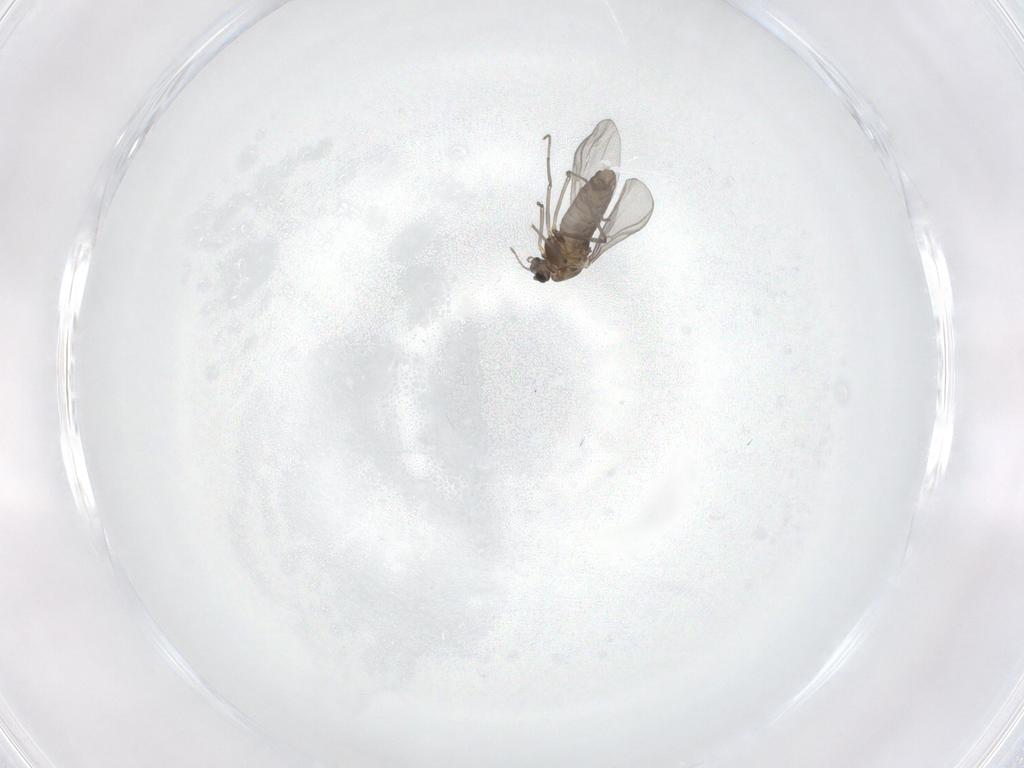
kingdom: Animalia
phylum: Arthropoda
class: Insecta
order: Diptera
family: Chironomidae
